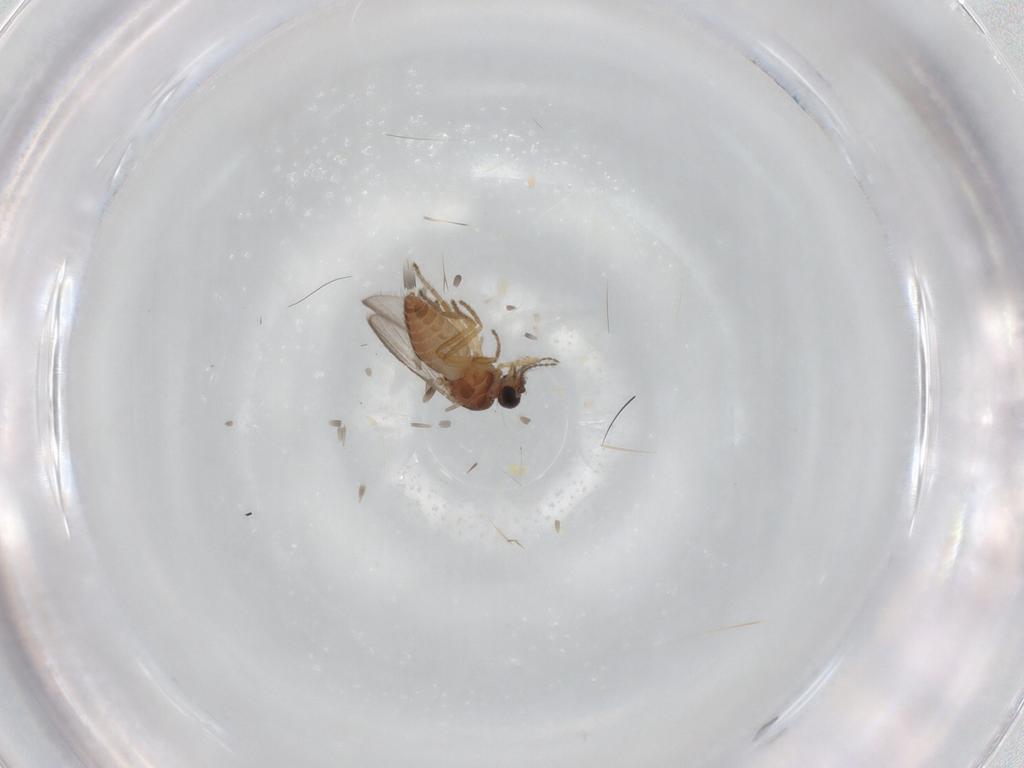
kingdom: Animalia
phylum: Arthropoda
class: Insecta
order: Diptera
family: Ceratopogonidae
